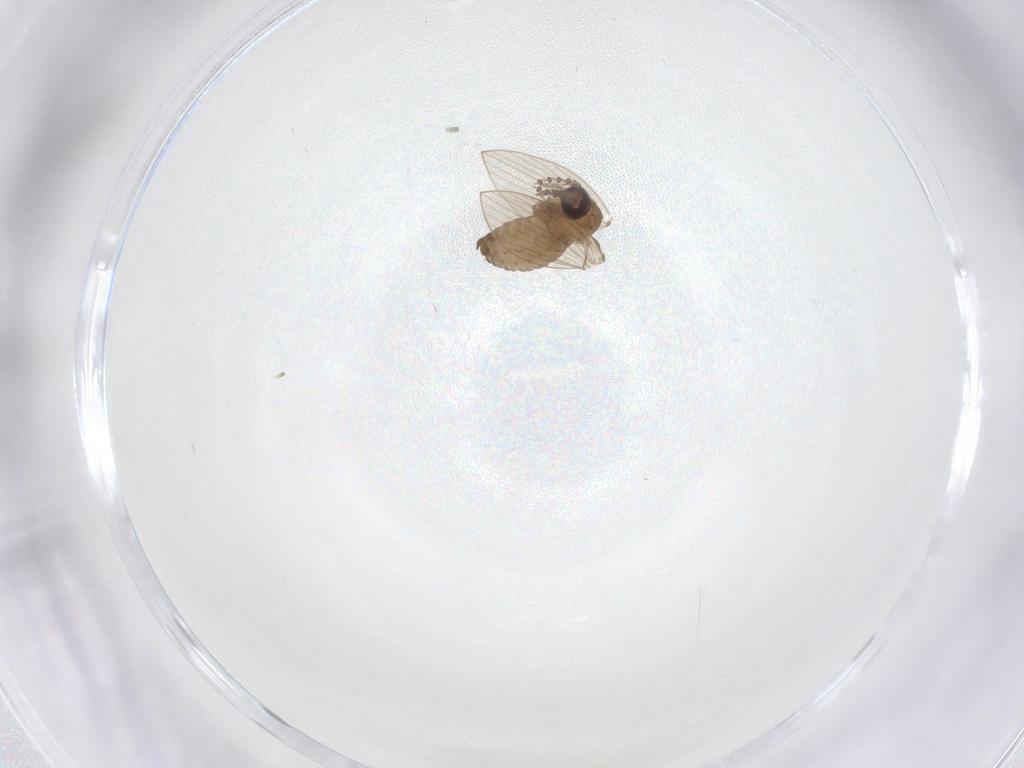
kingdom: Animalia
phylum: Arthropoda
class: Insecta
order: Diptera
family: Cecidomyiidae
